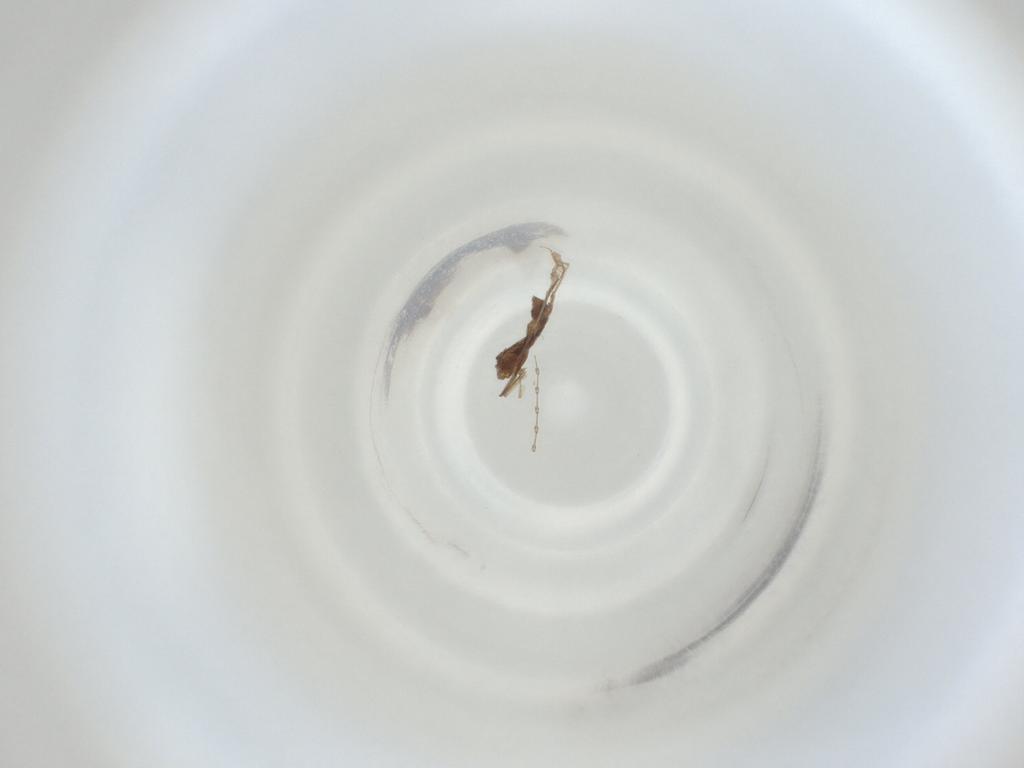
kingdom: Animalia
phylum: Arthropoda
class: Insecta
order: Diptera
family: Cecidomyiidae
